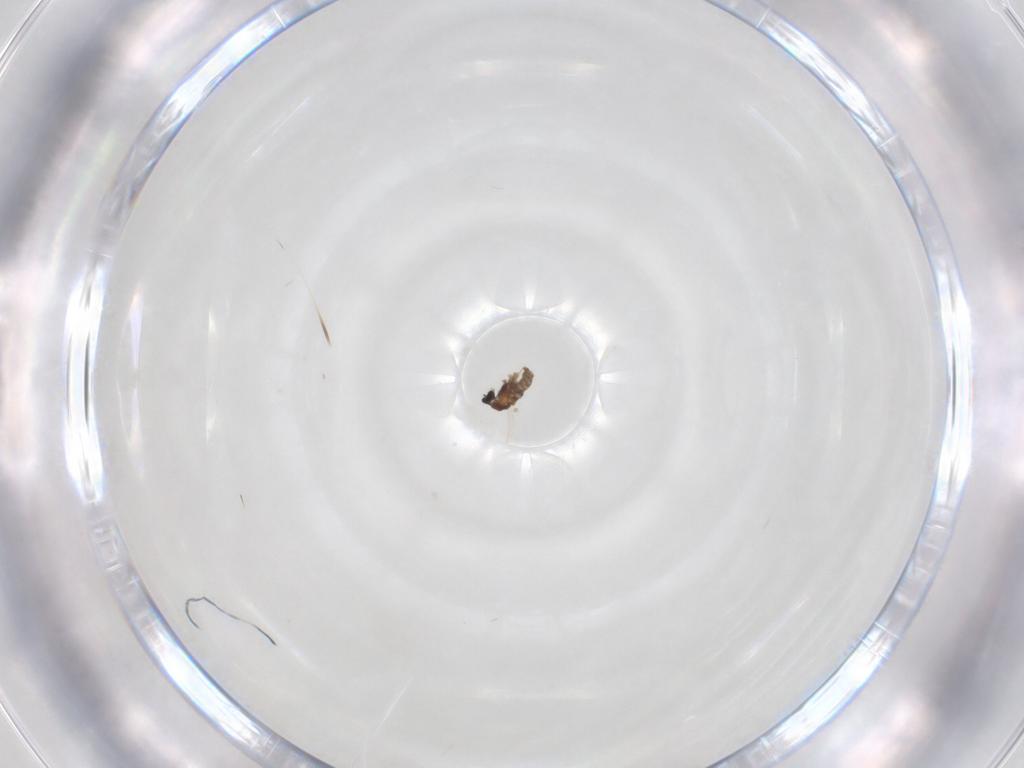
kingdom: Animalia
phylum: Arthropoda
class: Insecta
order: Diptera
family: Cecidomyiidae
